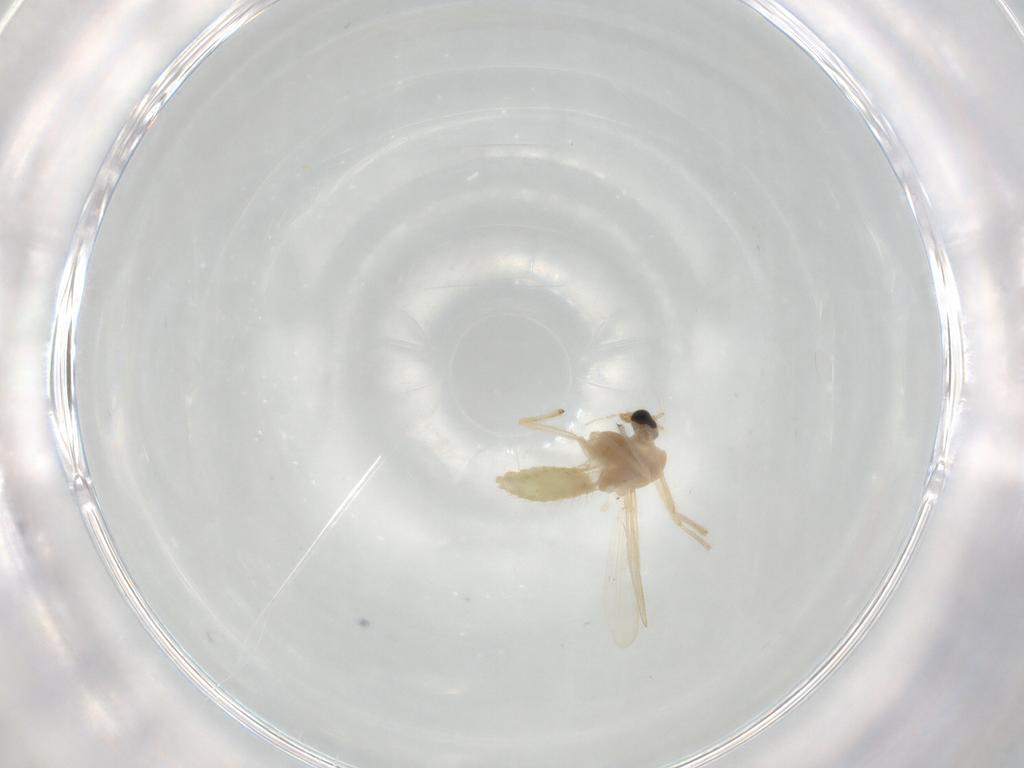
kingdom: Animalia
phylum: Arthropoda
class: Insecta
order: Diptera
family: Chironomidae
